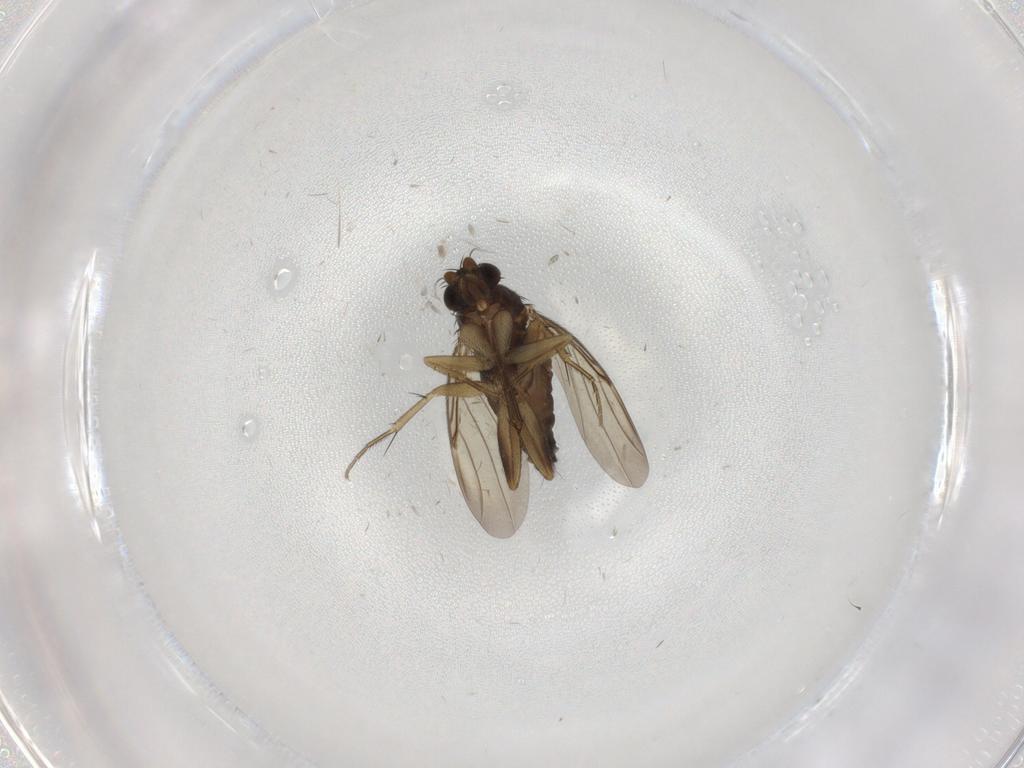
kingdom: Animalia
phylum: Arthropoda
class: Insecta
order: Diptera
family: Phoridae
